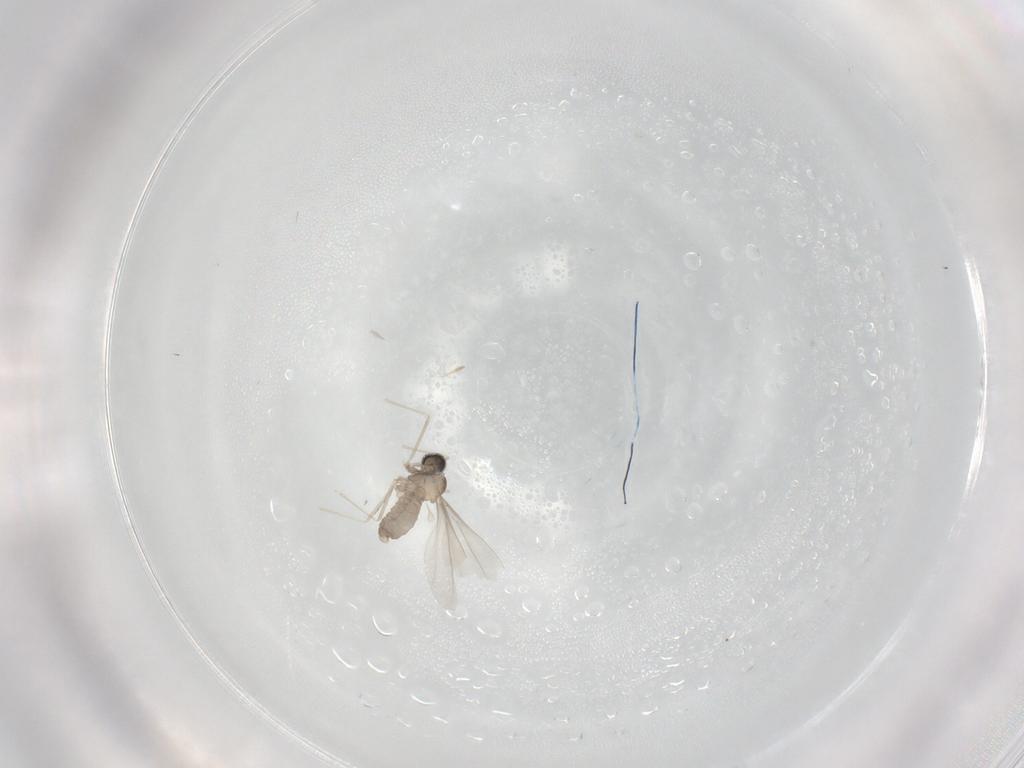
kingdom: Animalia
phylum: Arthropoda
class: Insecta
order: Diptera
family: Cecidomyiidae
